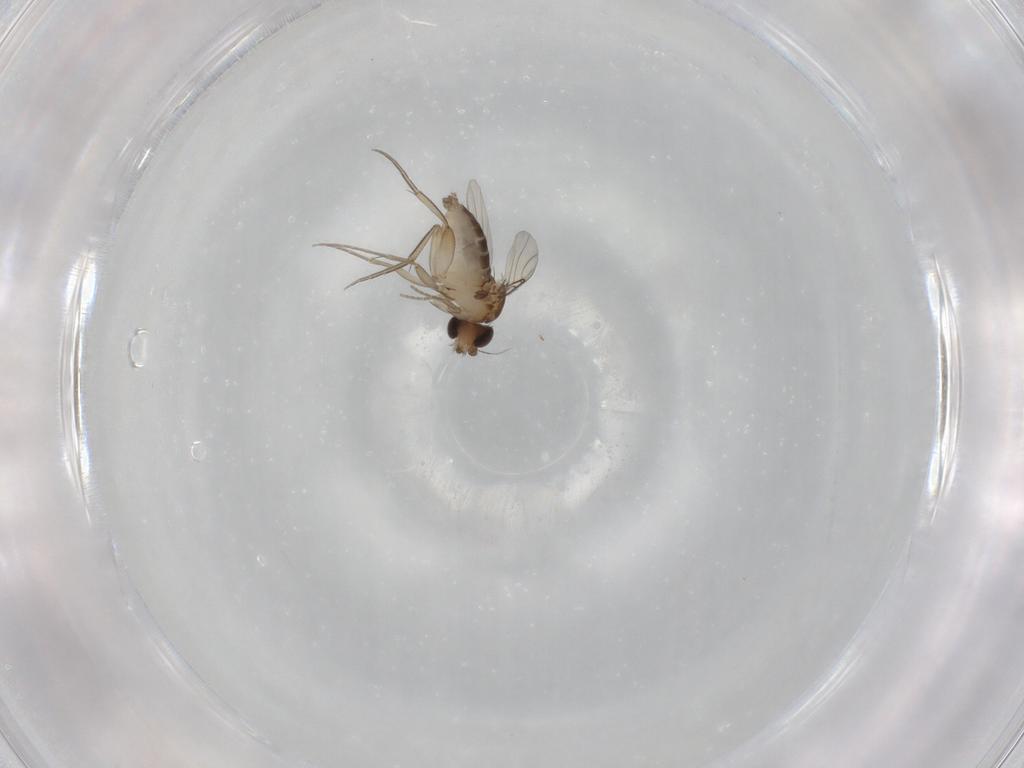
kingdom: Animalia
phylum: Arthropoda
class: Insecta
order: Diptera
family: Phoridae
